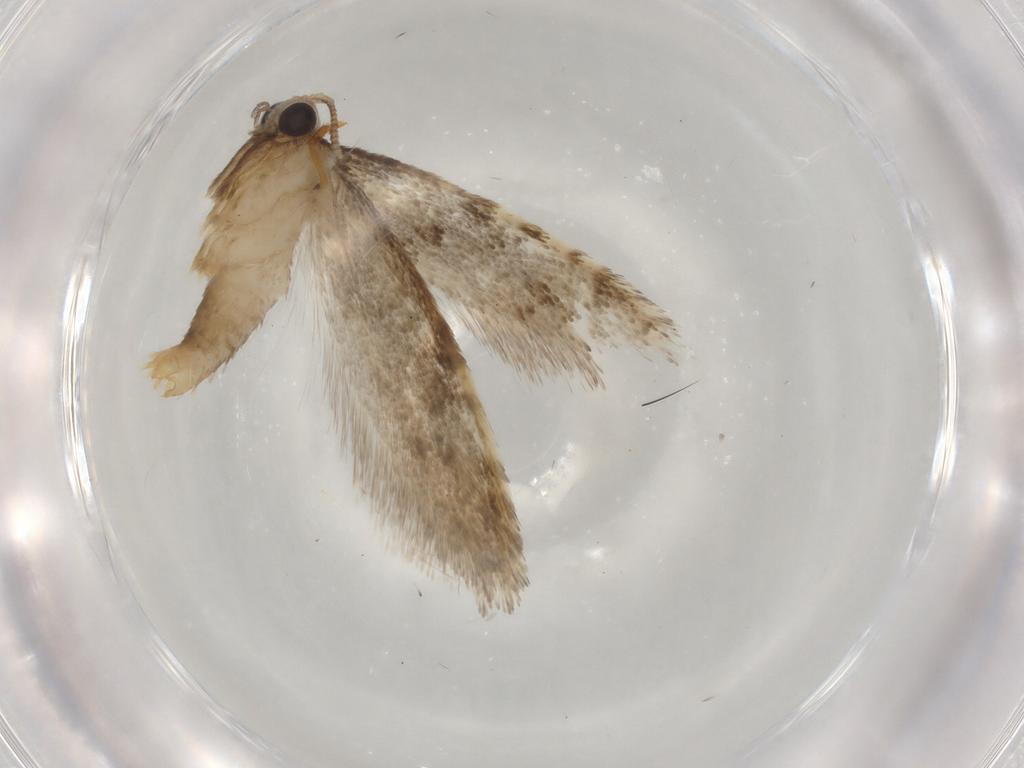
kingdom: Animalia
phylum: Arthropoda
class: Insecta
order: Lepidoptera
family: Tineidae
